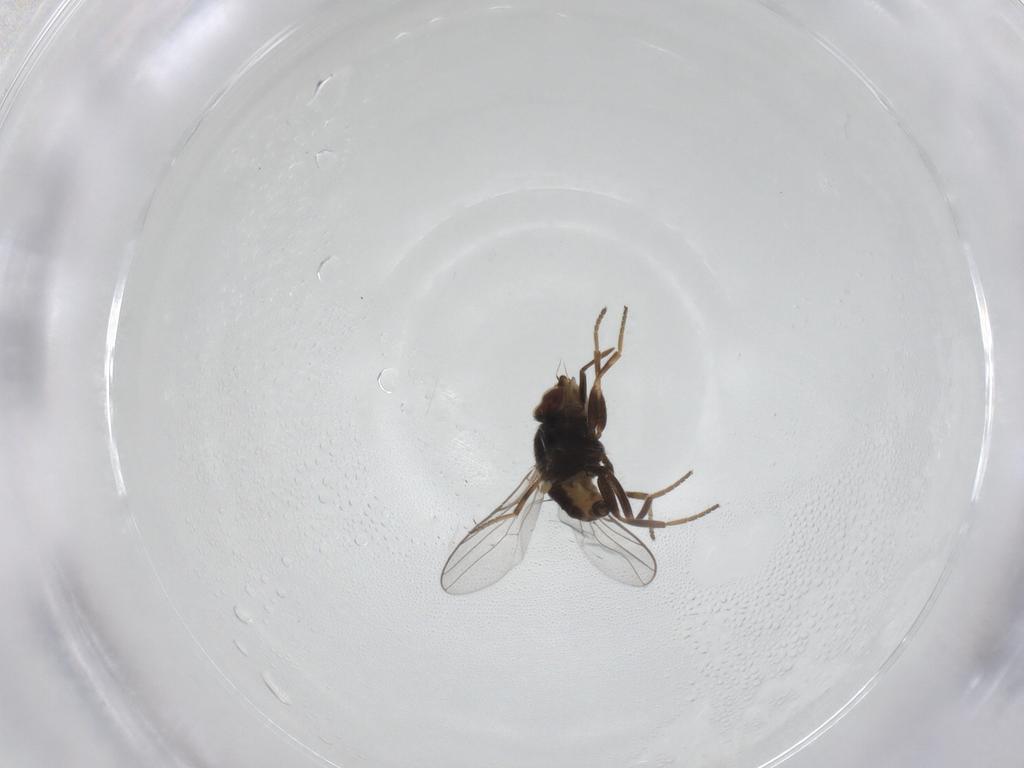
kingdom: Animalia
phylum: Arthropoda
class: Insecta
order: Diptera
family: Chloropidae
